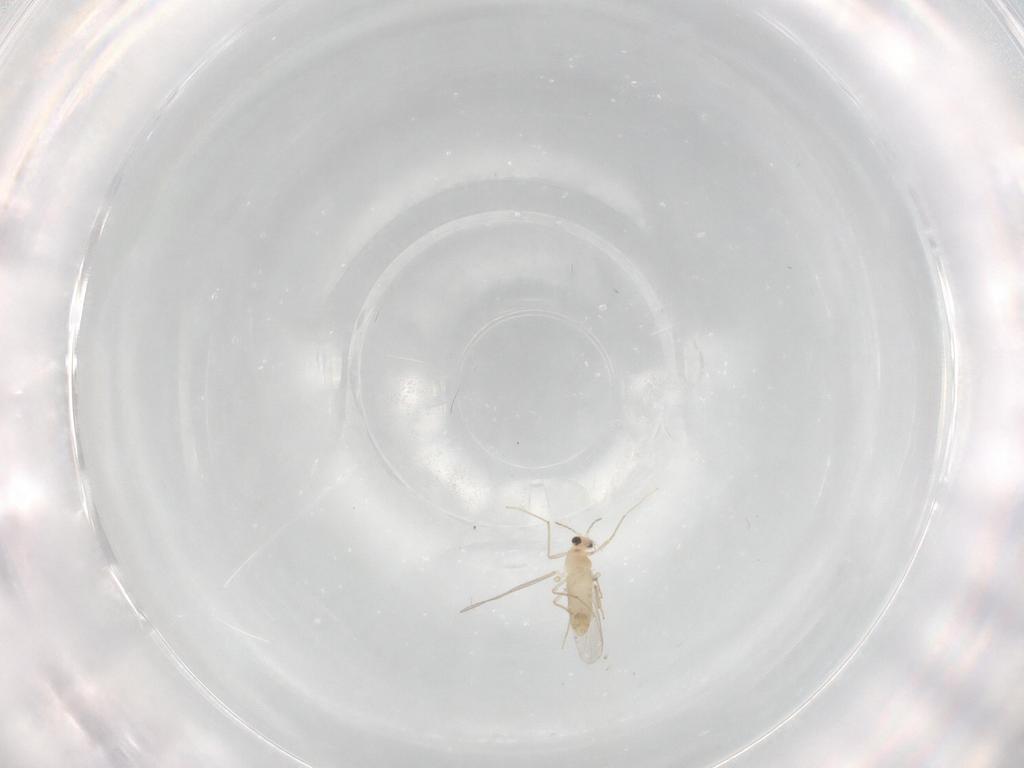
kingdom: Animalia
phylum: Arthropoda
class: Insecta
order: Diptera
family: Chironomidae
